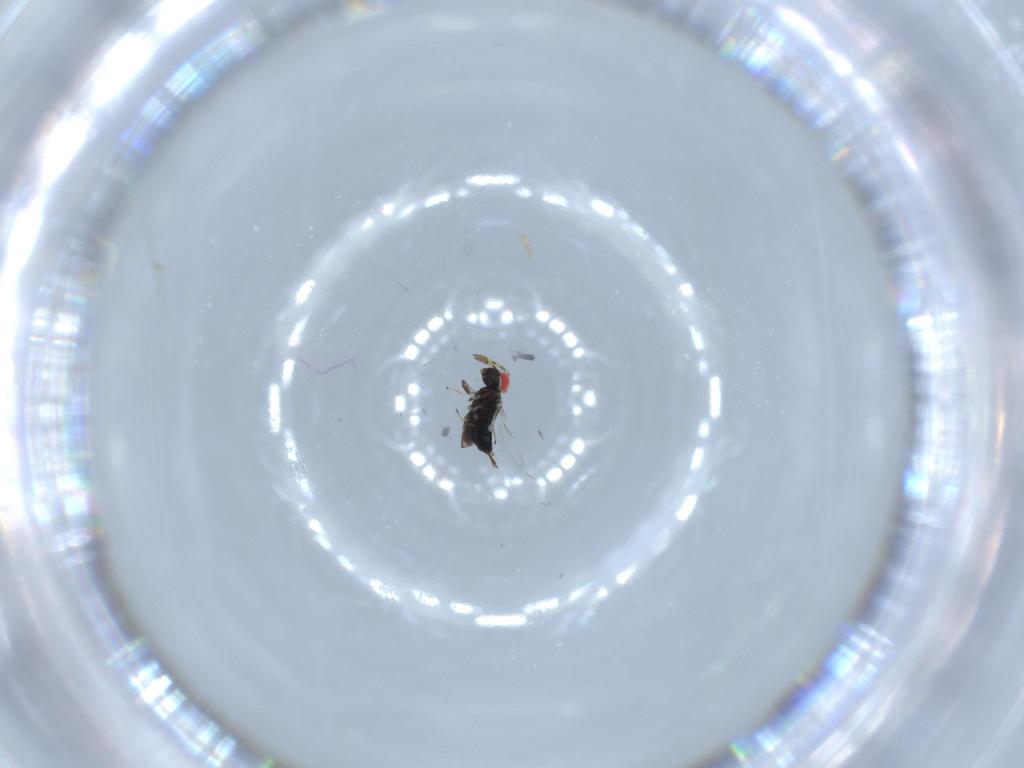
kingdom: Animalia
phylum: Arthropoda
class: Insecta
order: Hymenoptera
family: Azotidae
